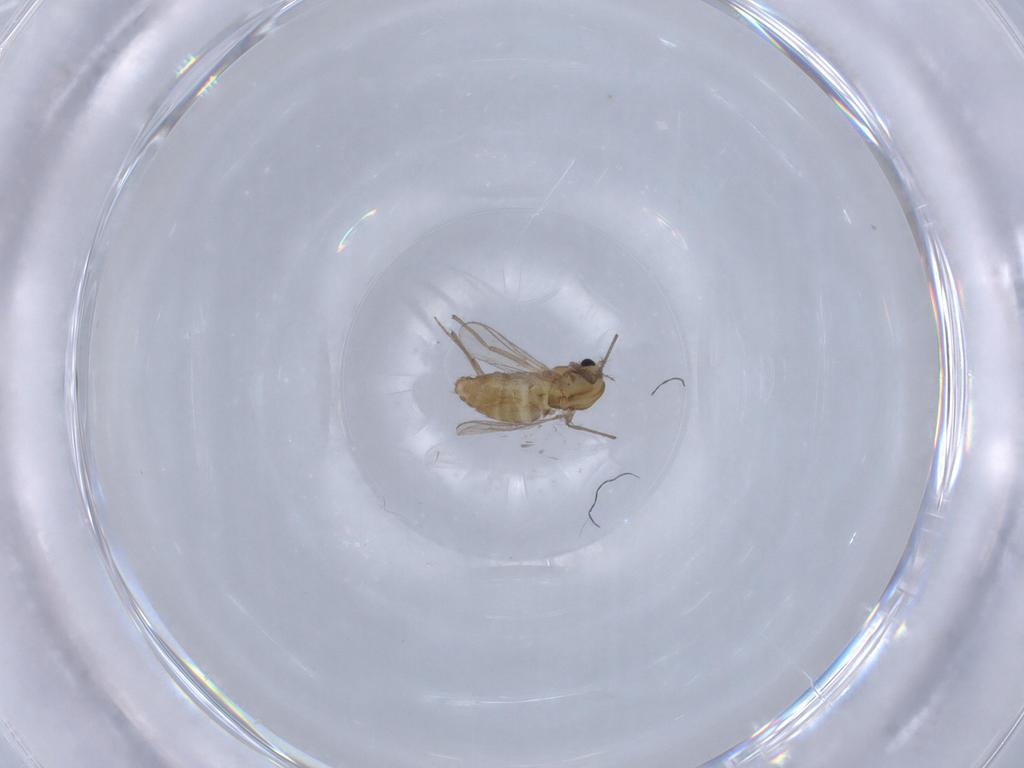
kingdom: Animalia
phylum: Arthropoda
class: Insecta
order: Diptera
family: Chironomidae
